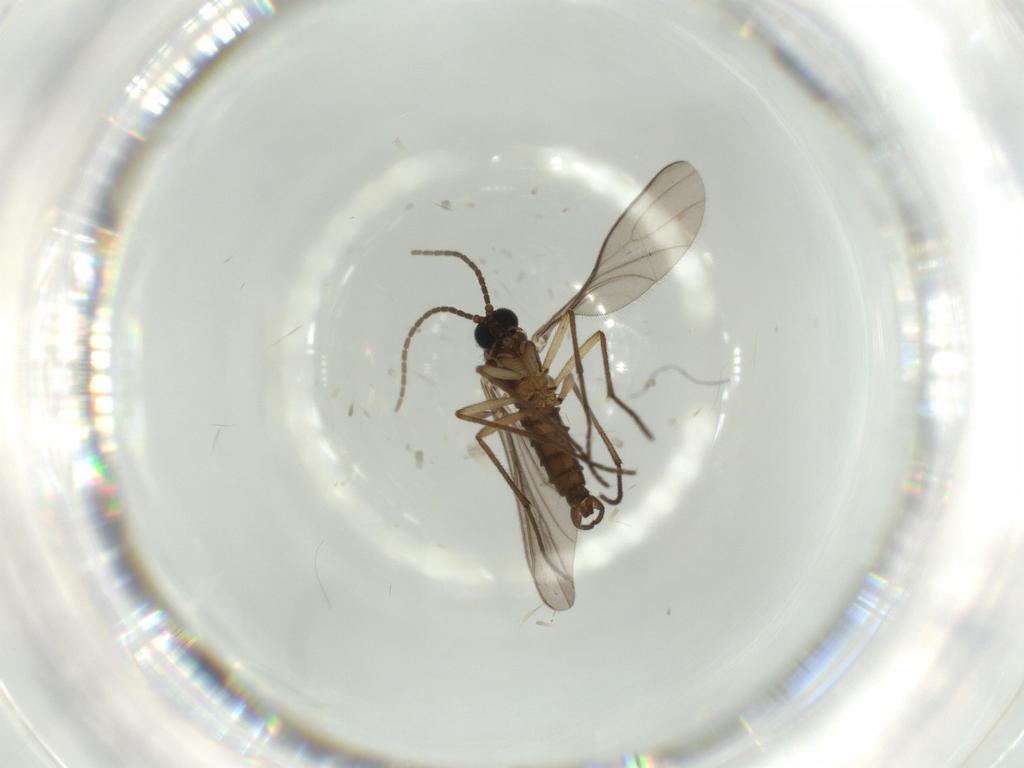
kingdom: Animalia
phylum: Arthropoda
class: Insecta
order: Diptera
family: Sciaridae
